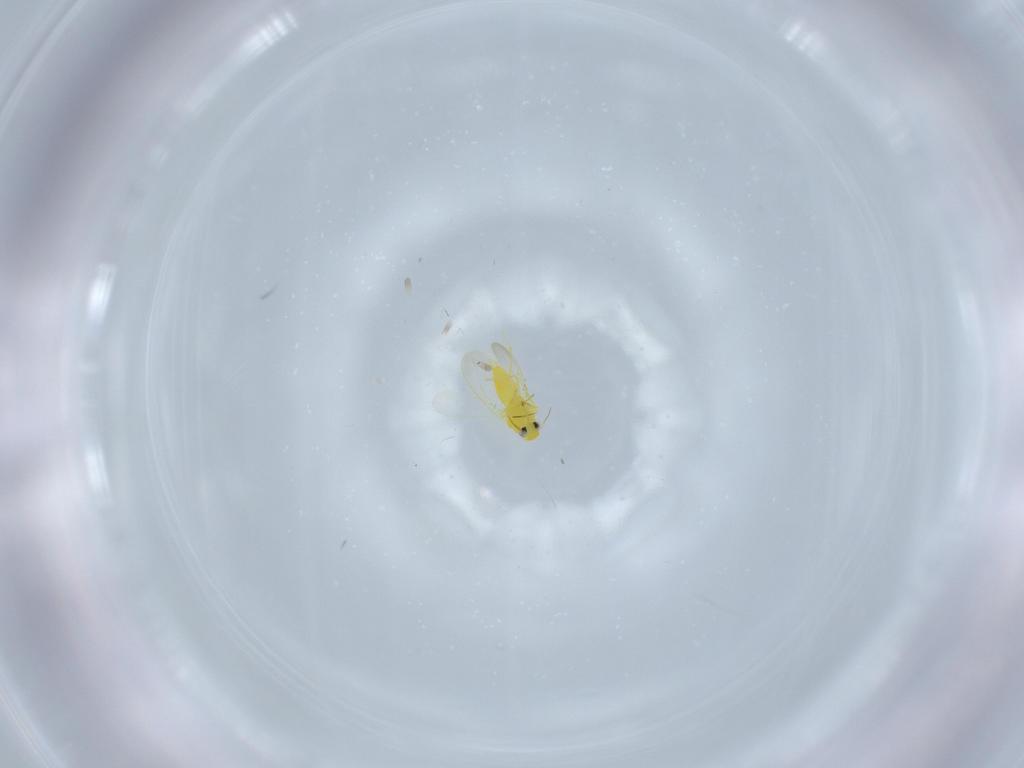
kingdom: Animalia
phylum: Arthropoda
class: Insecta
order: Hemiptera
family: Aleyrodidae
